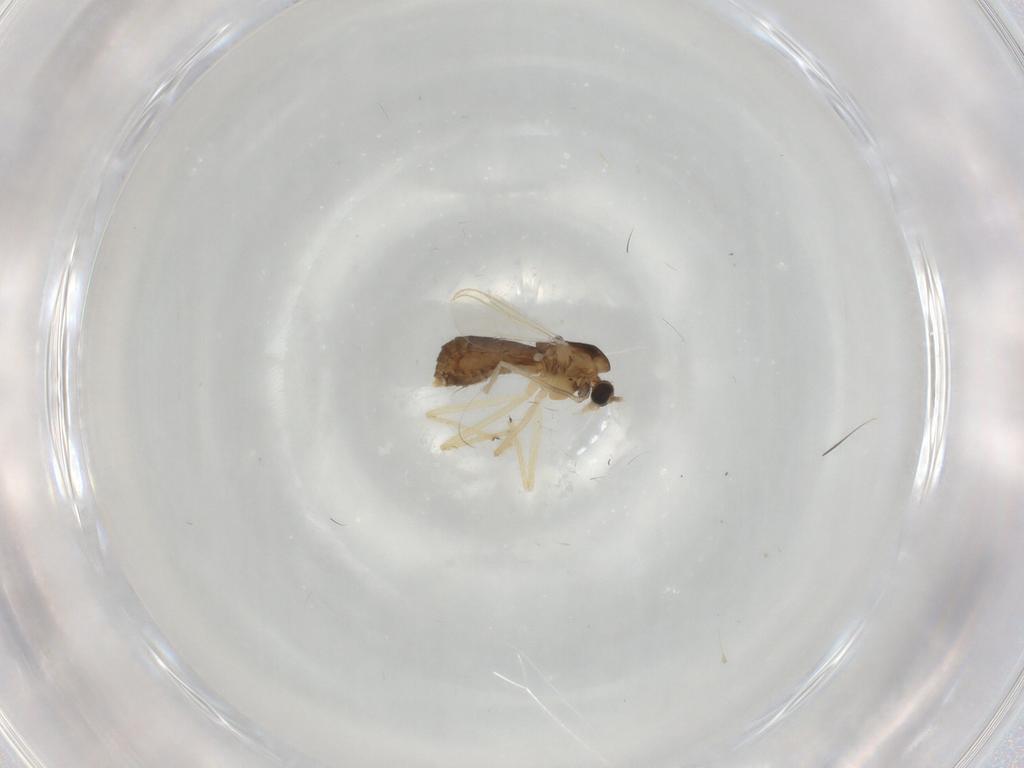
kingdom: Animalia
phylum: Arthropoda
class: Insecta
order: Diptera
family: Chironomidae
